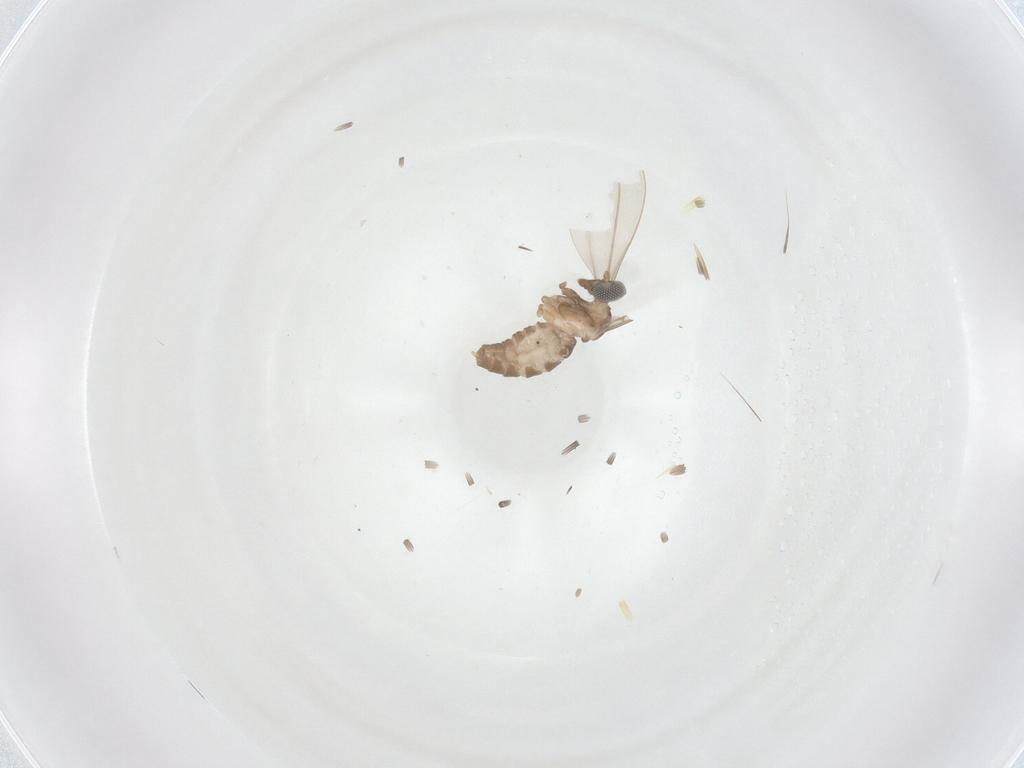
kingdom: Animalia
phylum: Arthropoda
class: Insecta
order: Diptera
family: Cecidomyiidae
